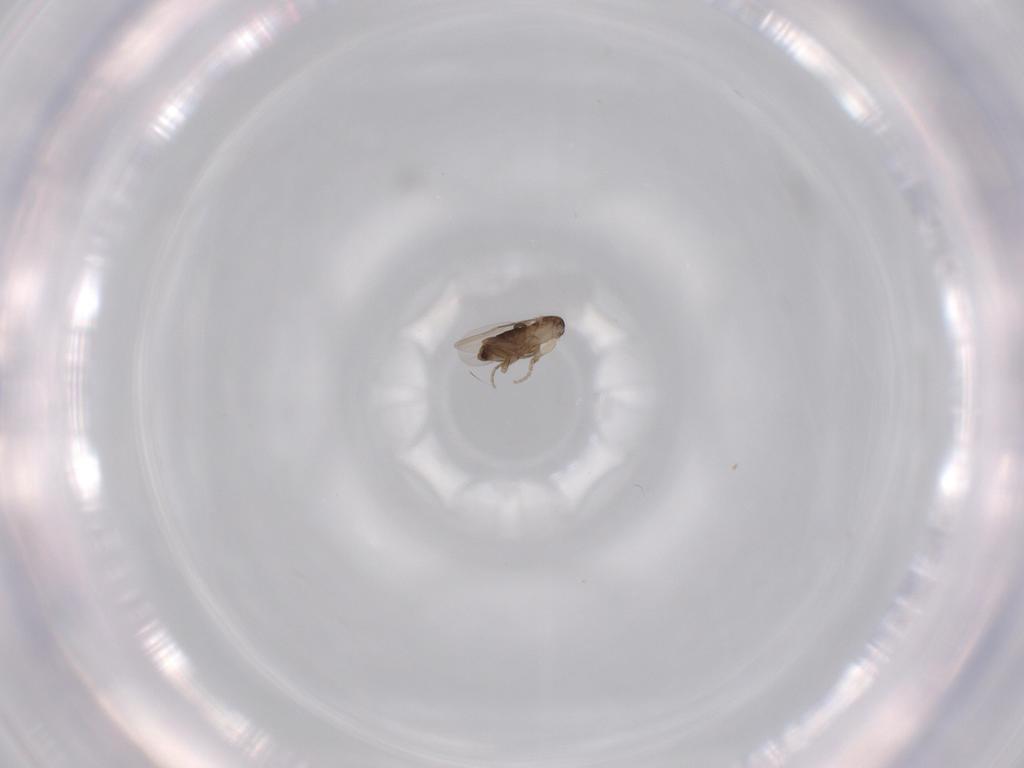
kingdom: Animalia
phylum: Arthropoda
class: Insecta
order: Diptera
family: Phoridae
